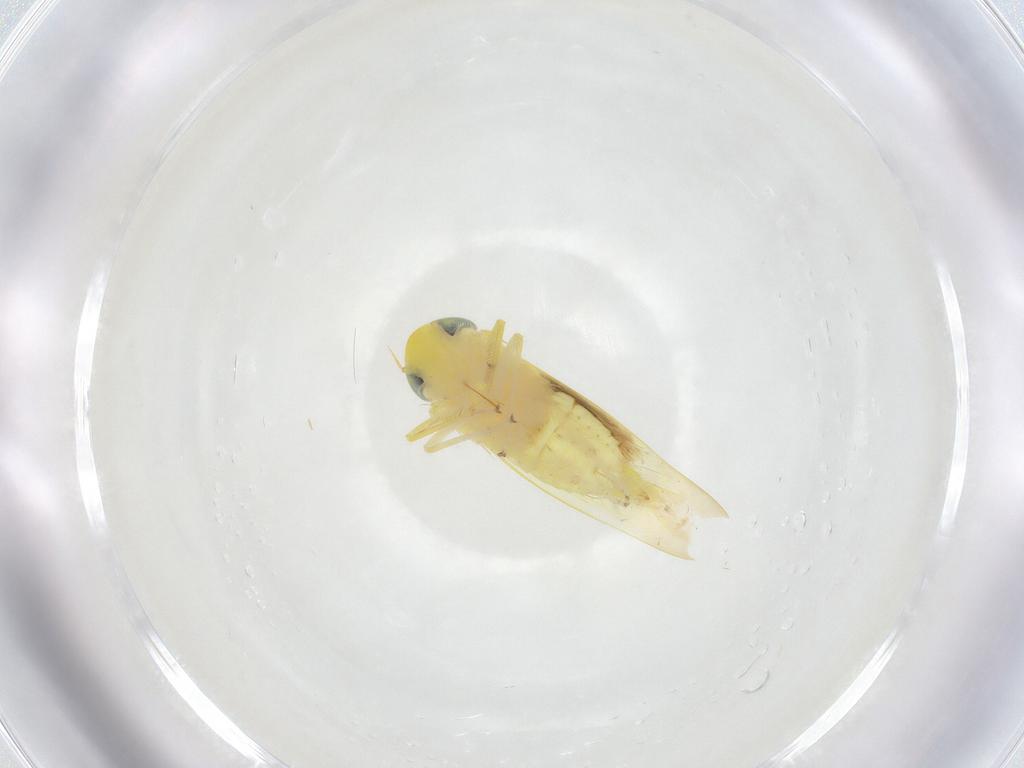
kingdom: Animalia
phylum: Arthropoda
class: Insecta
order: Hemiptera
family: Cicadellidae
